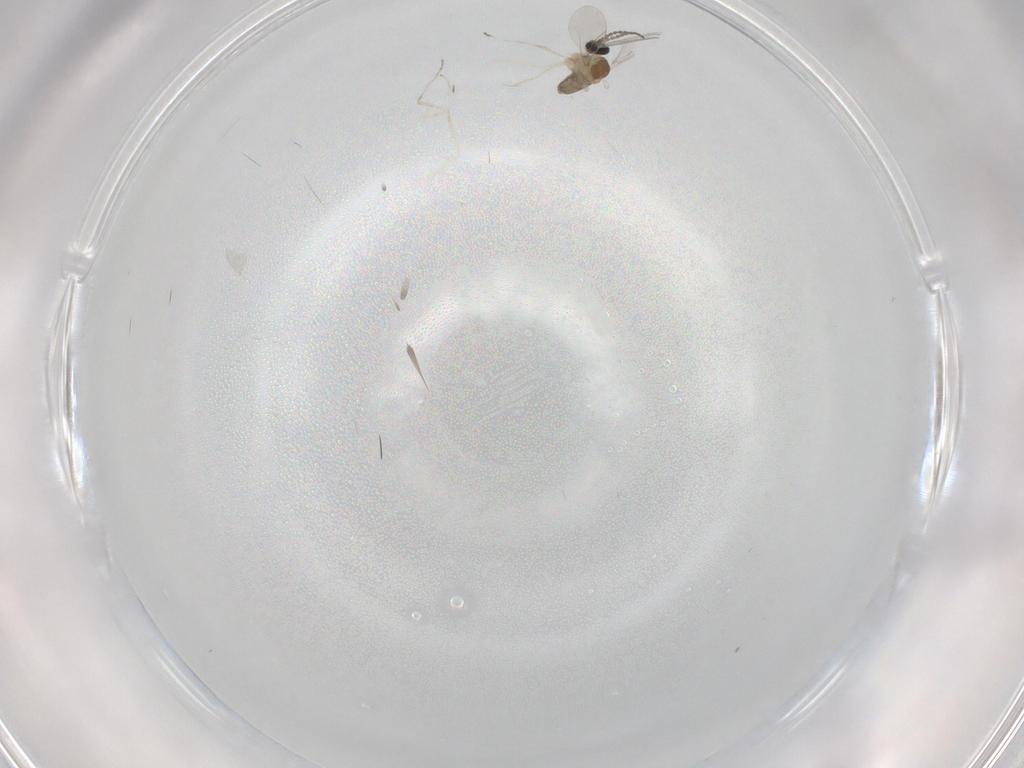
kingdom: Animalia
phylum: Arthropoda
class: Insecta
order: Diptera
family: Cecidomyiidae
